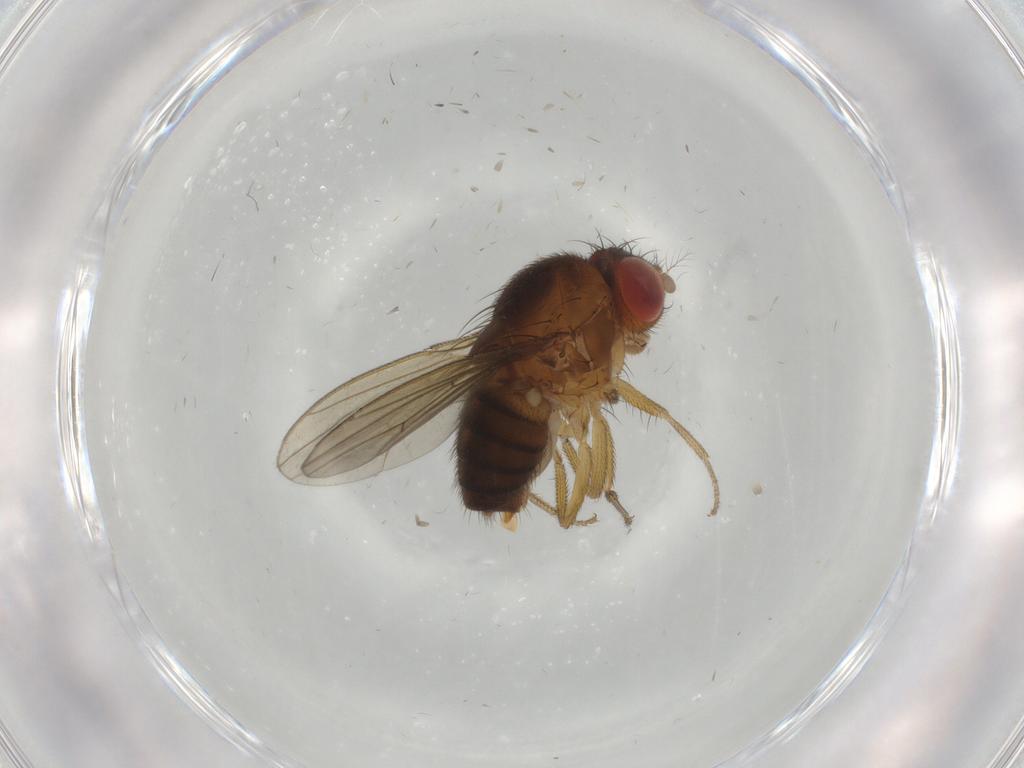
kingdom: Animalia
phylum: Arthropoda
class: Insecta
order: Diptera
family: Drosophilidae
